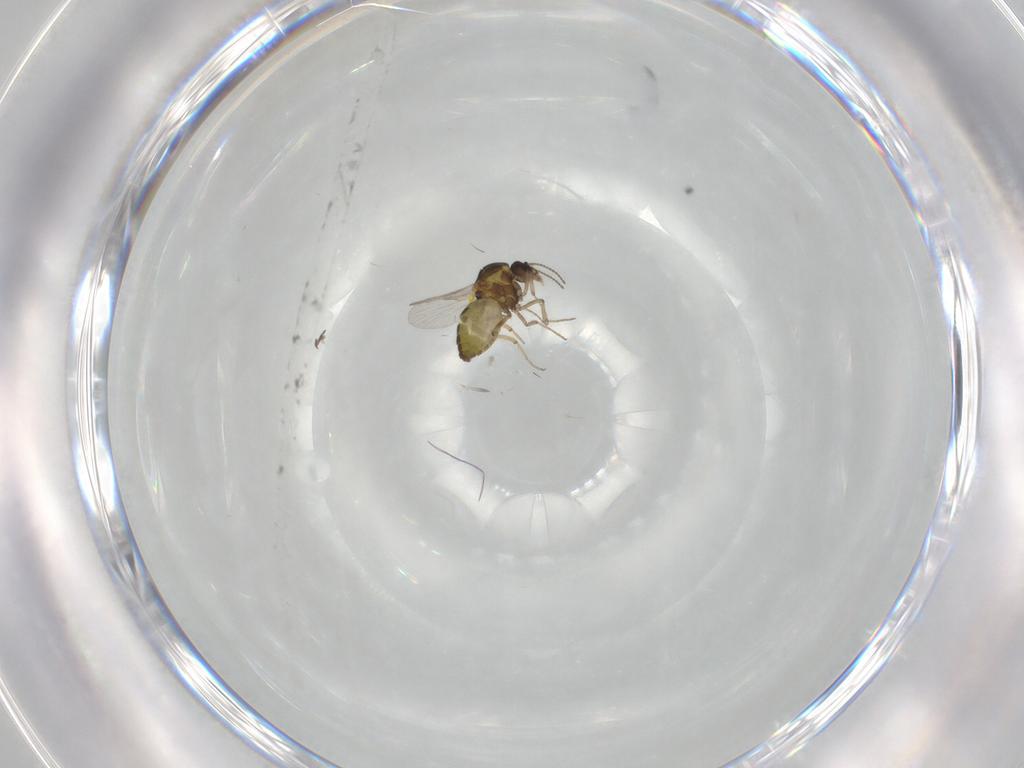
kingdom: Animalia
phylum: Arthropoda
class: Insecta
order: Diptera
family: Ceratopogonidae
